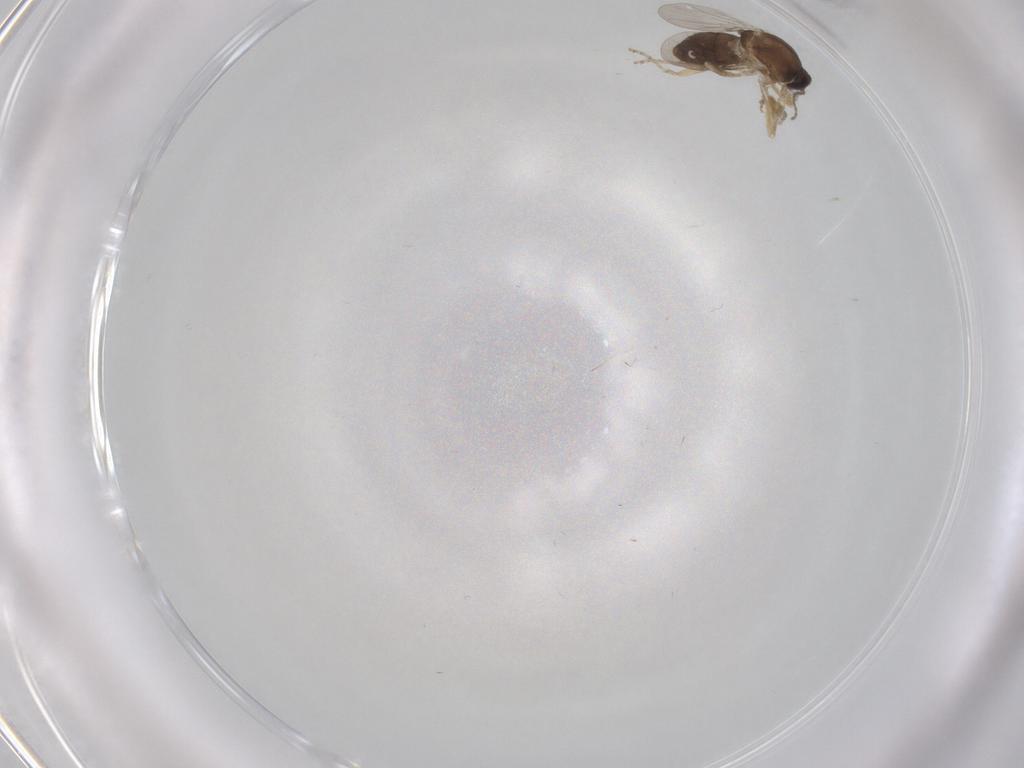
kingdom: Animalia
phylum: Arthropoda
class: Insecta
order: Diptera
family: Ceratopogonidae
